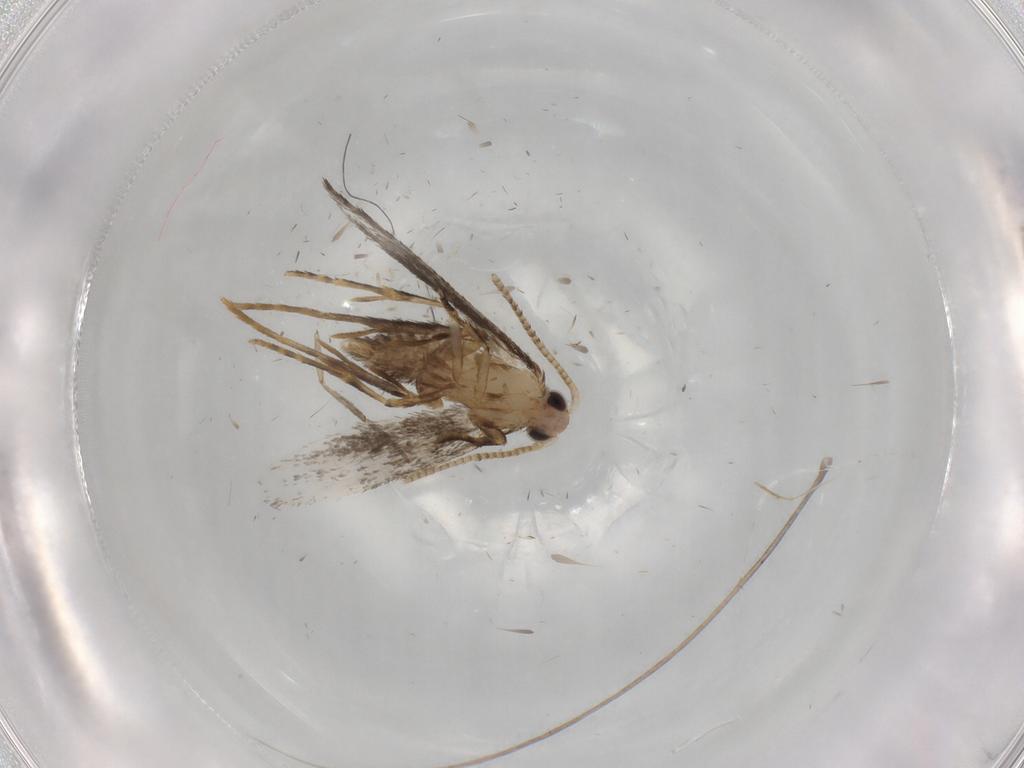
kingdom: Animalia
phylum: Arthropoda
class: Insecta
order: Lepidoptera
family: Tineidae
